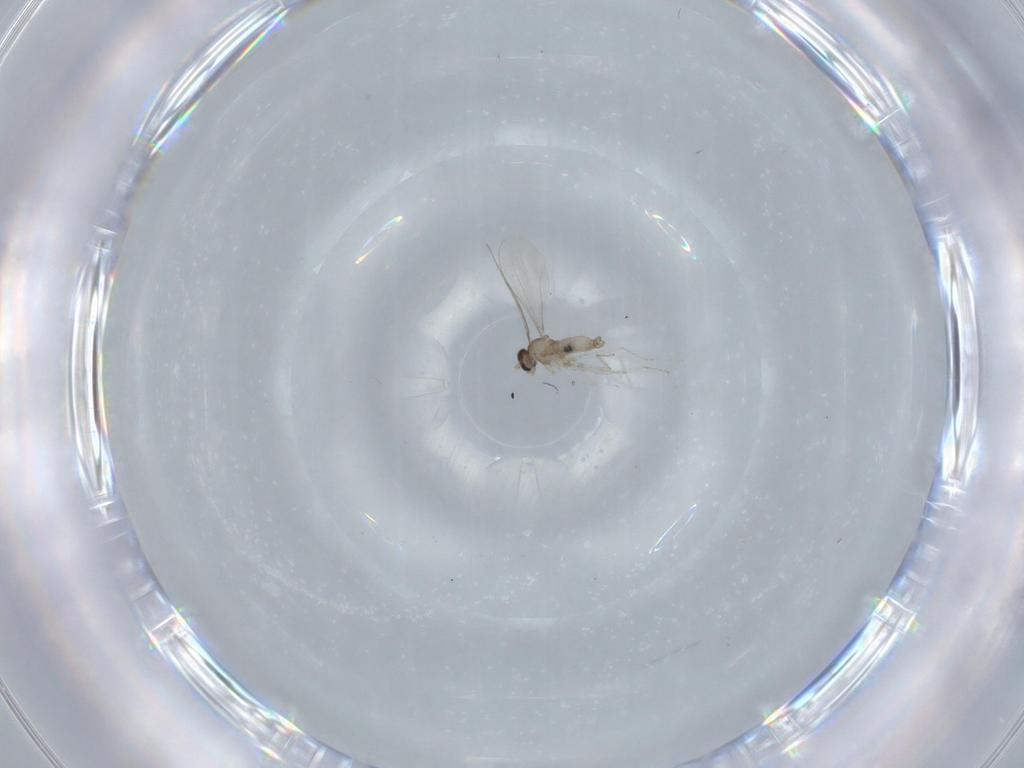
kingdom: Animalia
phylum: Arthropoda
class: Insecta
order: Diptera
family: Cecidomyiidae
